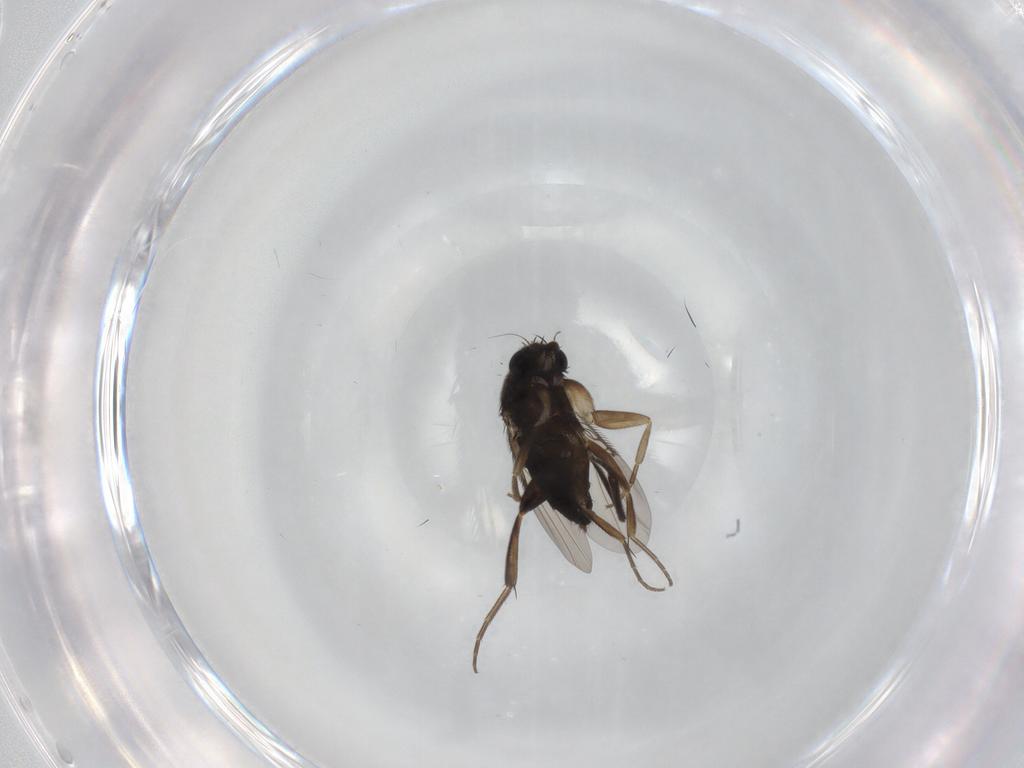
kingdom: Animalia
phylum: Arthropoda
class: Insecta
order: Diptera
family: Phoridae
